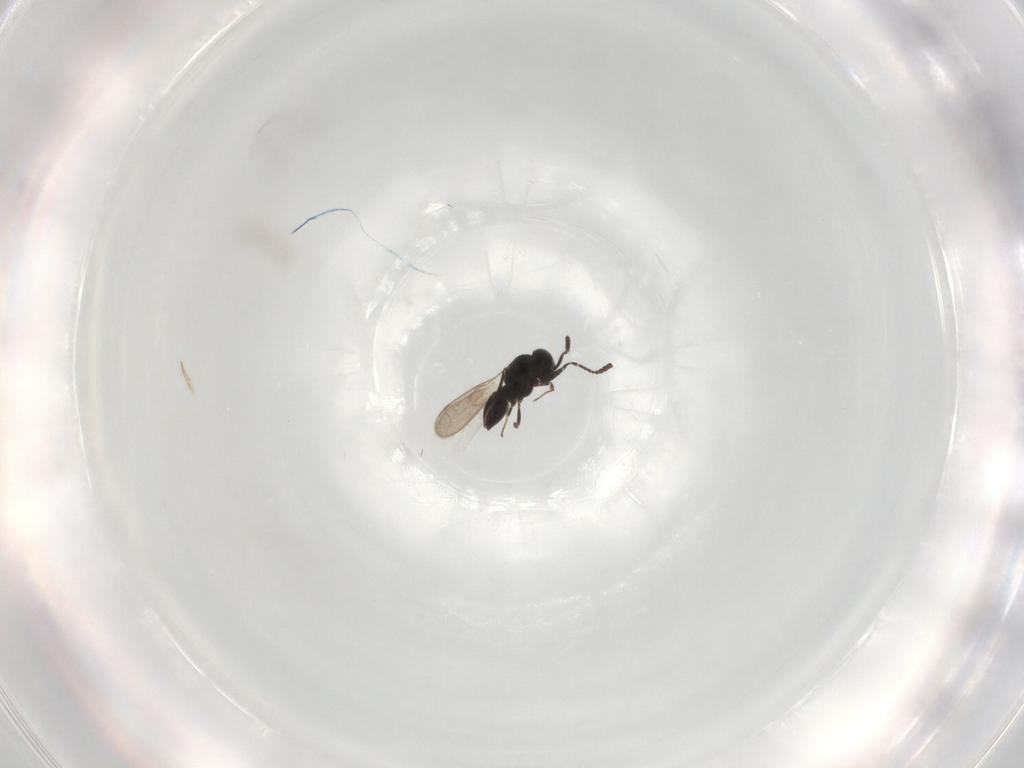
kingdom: Animalia
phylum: Arthropoda
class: Insecta
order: Hymenoptera
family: Scelionidae
